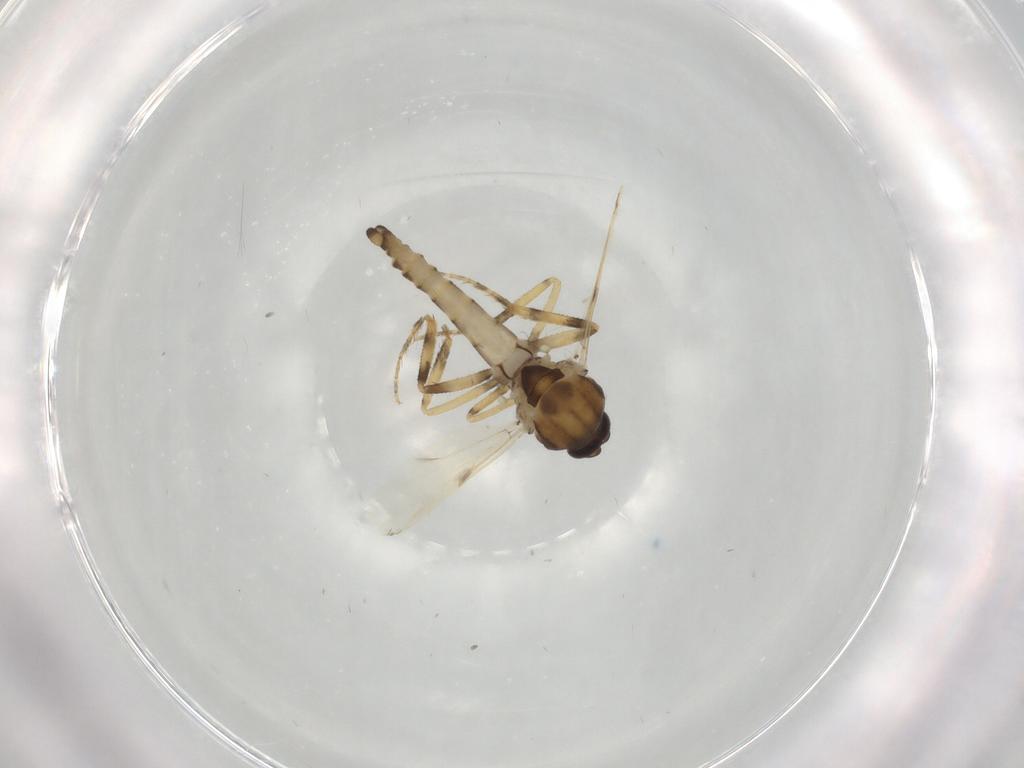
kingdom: Animalia
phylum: Arthropoda
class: Insecta
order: Diptera
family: Ceratopogonidae
